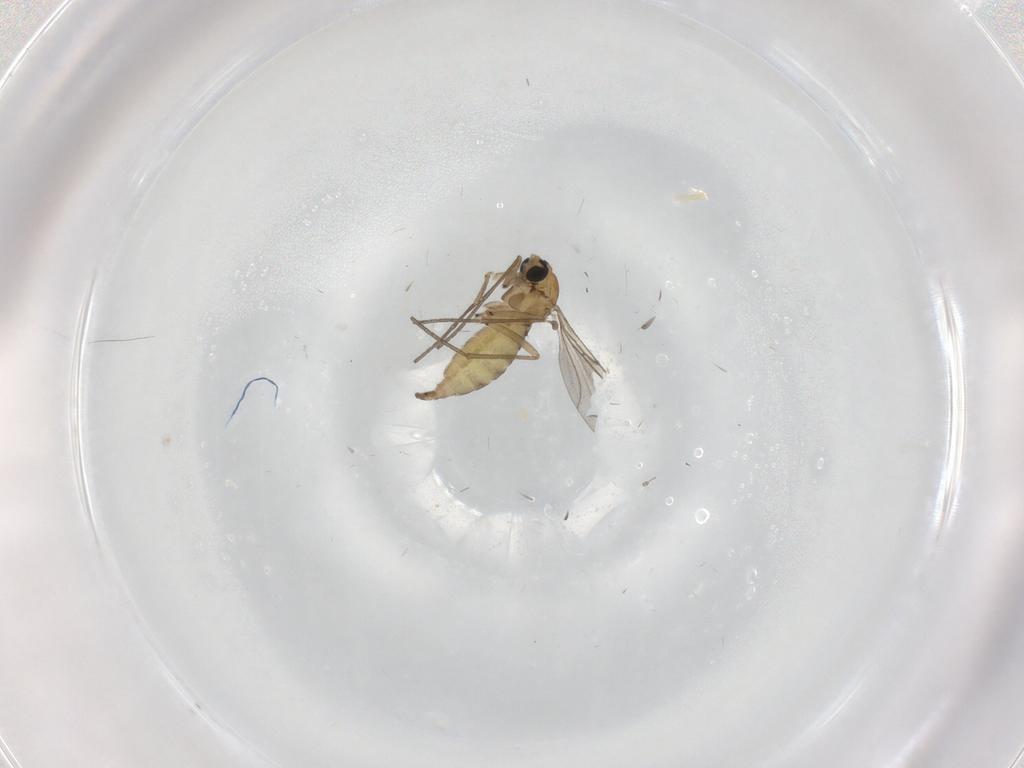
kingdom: Animalia
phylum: Arthropoda
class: Insecta
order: Diptera
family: Sciaridae
